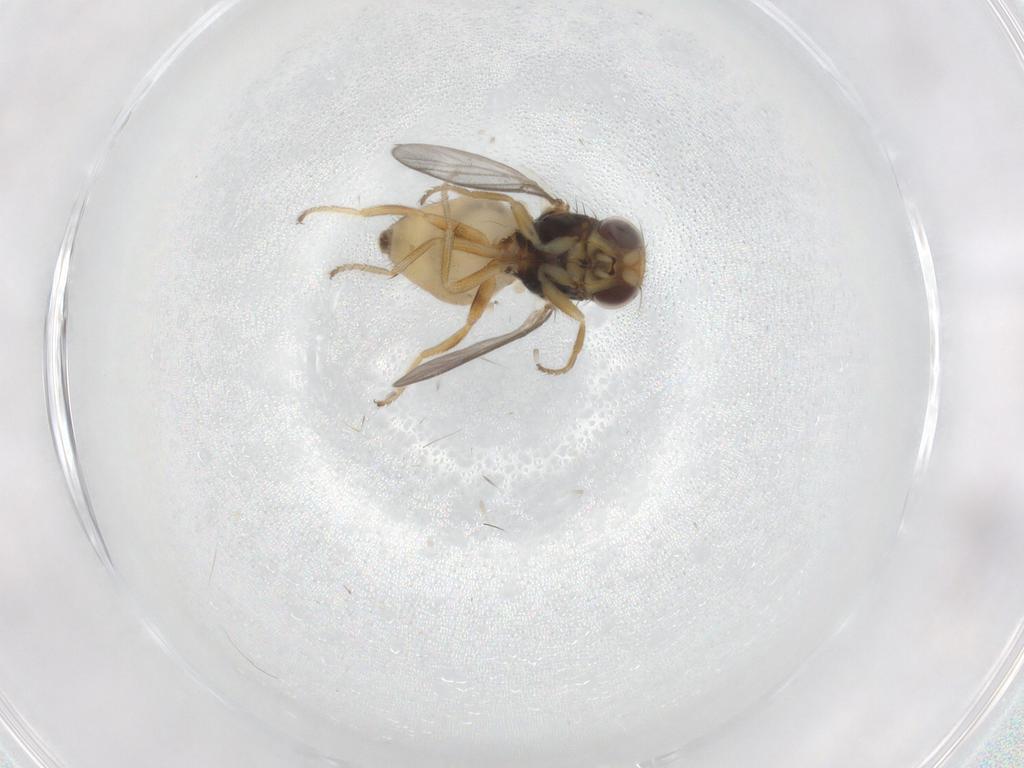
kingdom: Animalia
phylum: Arthropoda
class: Insecta
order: Diptera
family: Chloropidae
